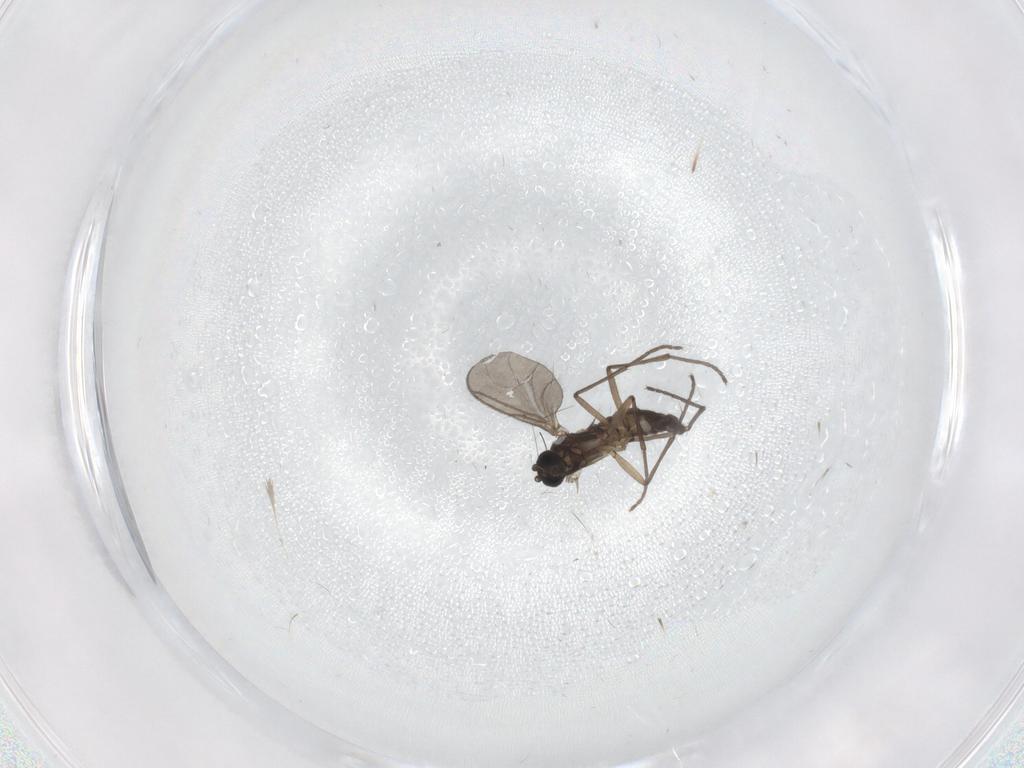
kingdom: Animalia
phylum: Arthropoda
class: Insecta
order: Diptera
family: Sciaridae
